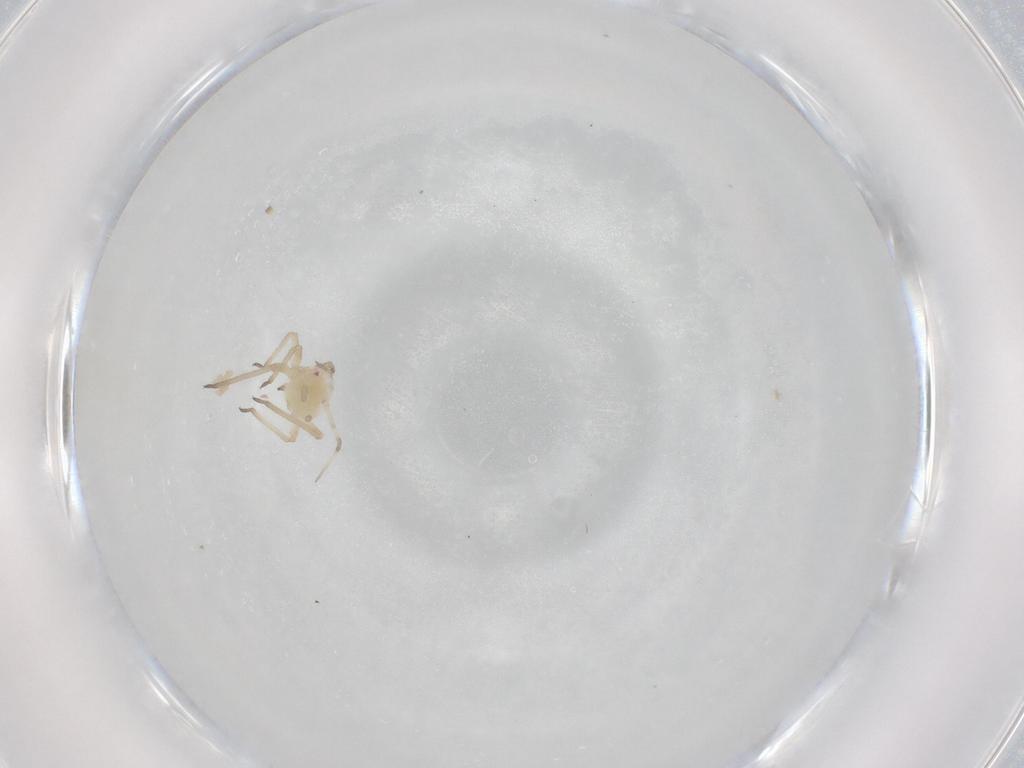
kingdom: Animalia
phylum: Arthropoda
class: Insecta
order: Hemiptera
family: Aphididae
